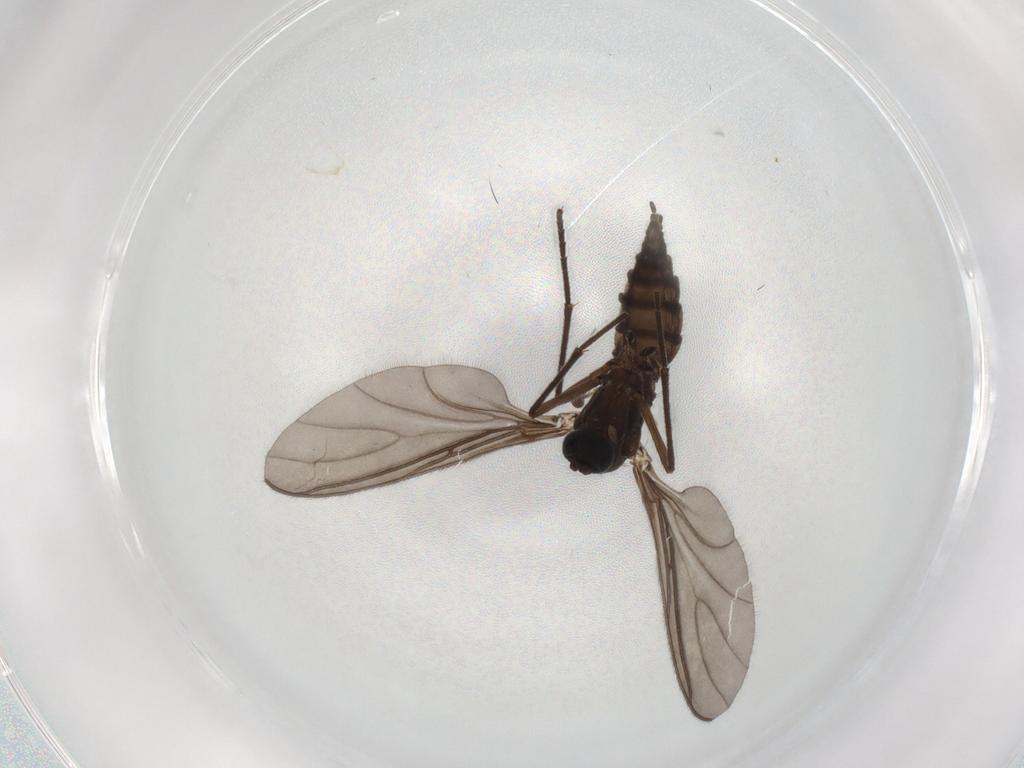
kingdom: Animalia
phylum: Arthropoda
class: Insecta
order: Diptera
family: Sciaridae
